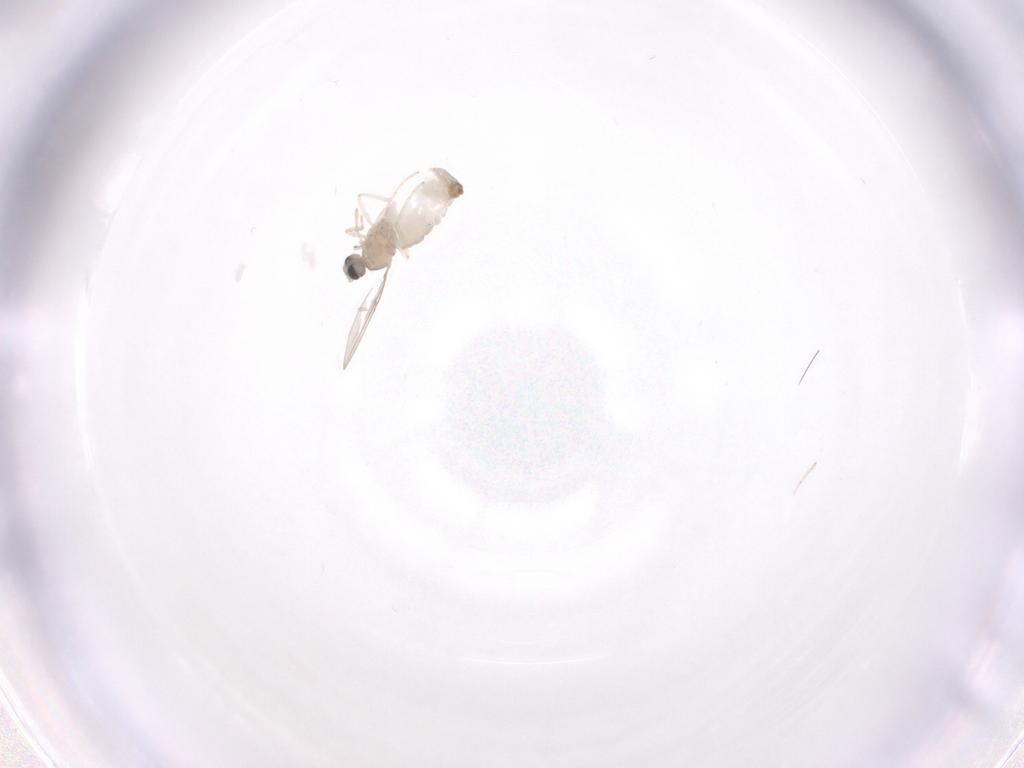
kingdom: Animalia
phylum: Arthropoda
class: Insecta
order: Diptera
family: Cecidomyiidae
